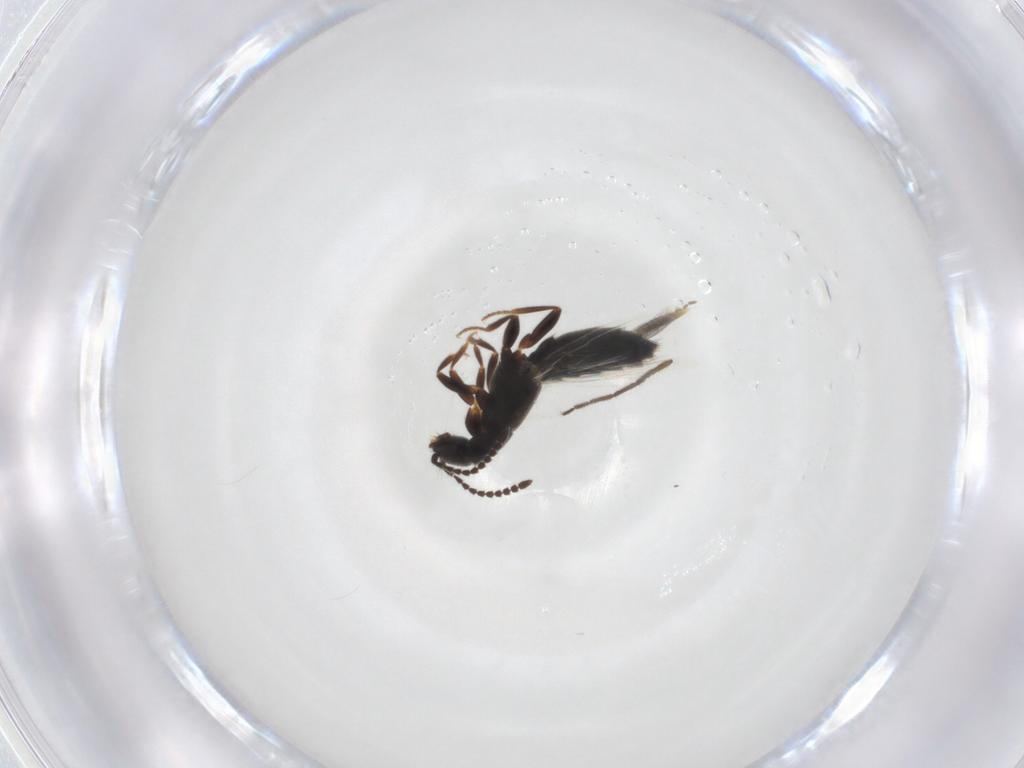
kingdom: Animalia
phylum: Arthropoda
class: Insecta
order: Coleoptera
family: Staphylinidae
